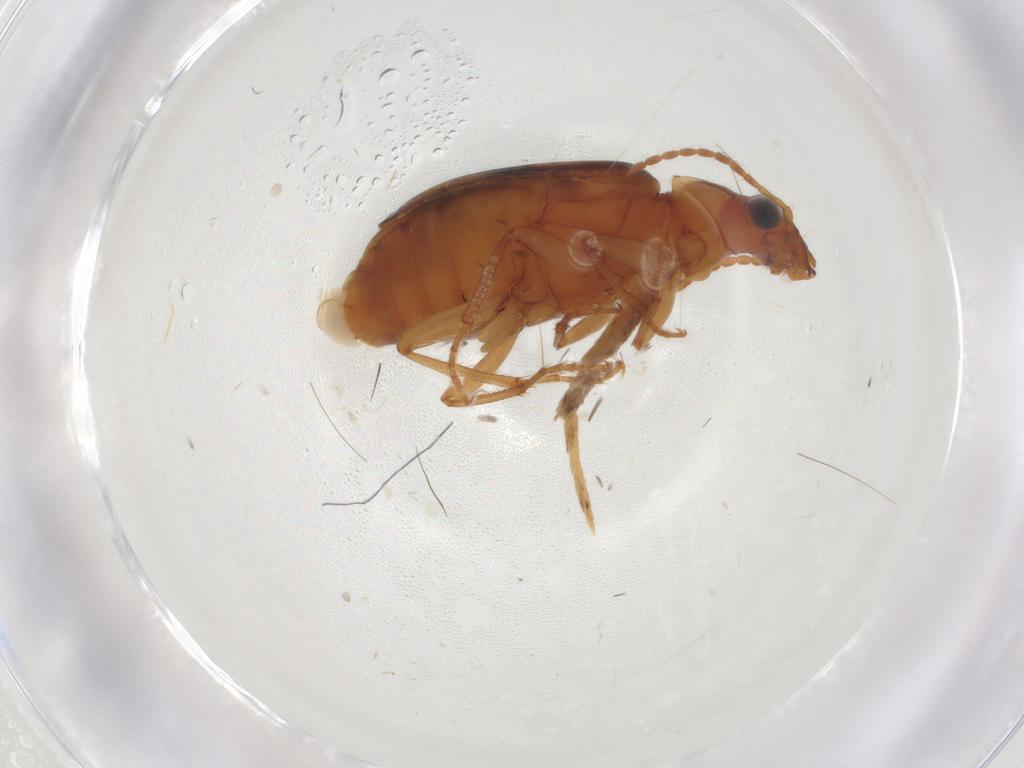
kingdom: Animalia
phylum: Arthropoda
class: Insecta
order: Coleoptera
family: Carabidae
